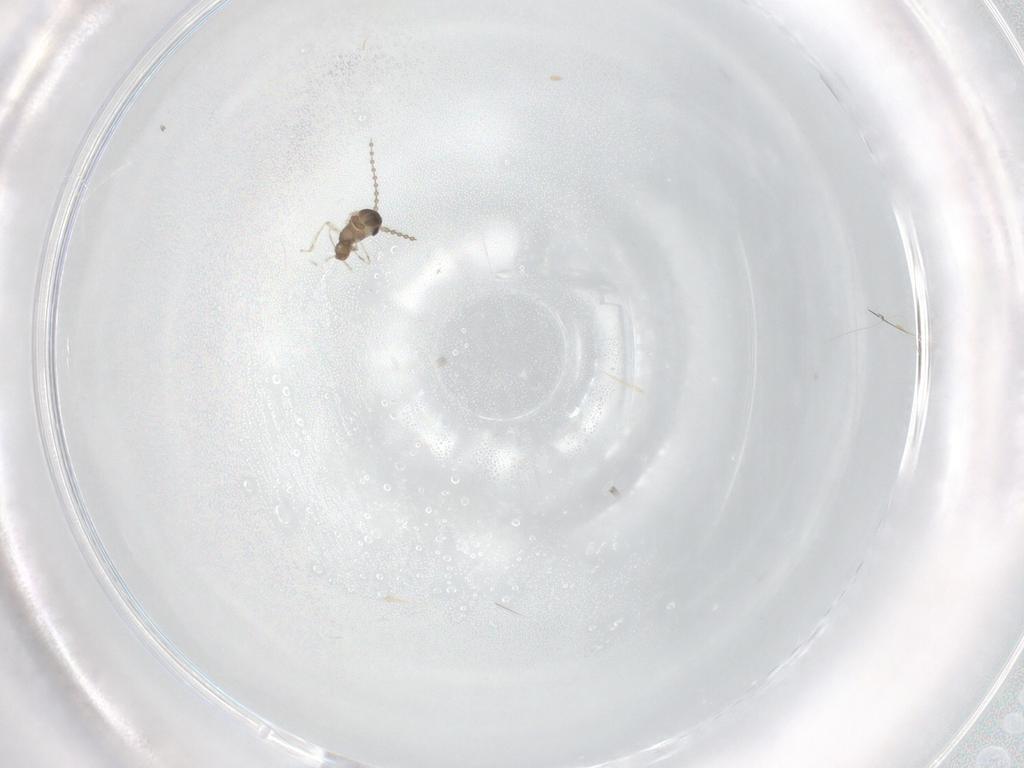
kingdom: Animalia
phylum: Arthropoda
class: Insecta
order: Diptera
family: Cecidomyiidae
